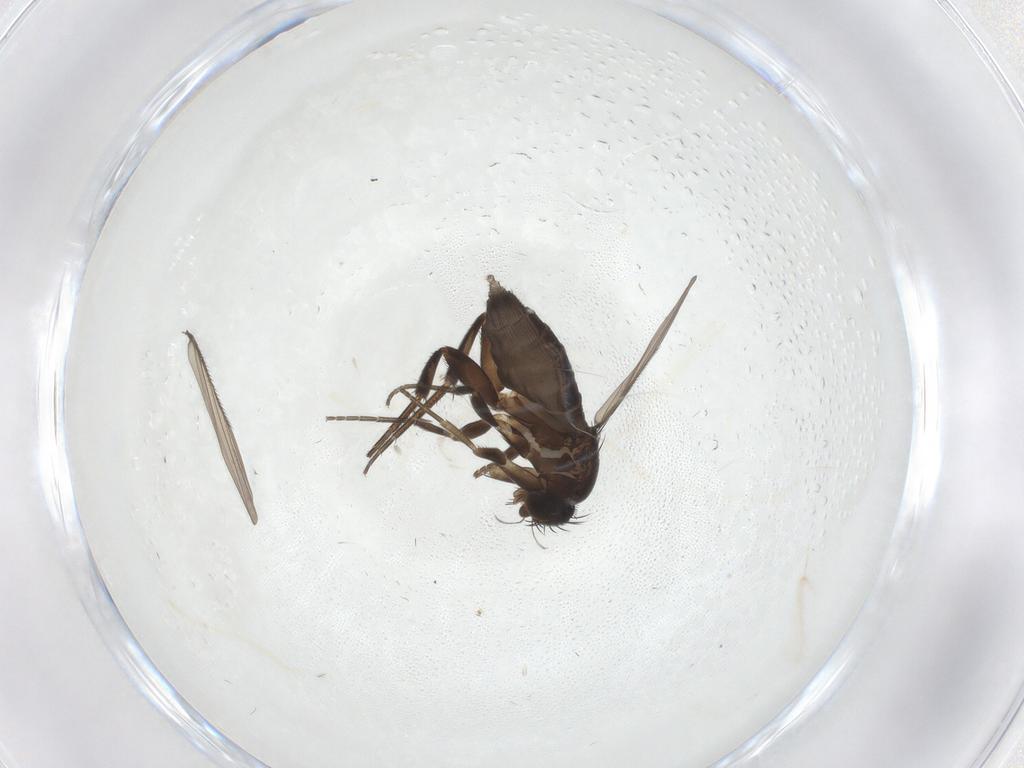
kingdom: Animalia
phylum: Arthropoda
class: Insecta
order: Diptera
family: Phoridae
